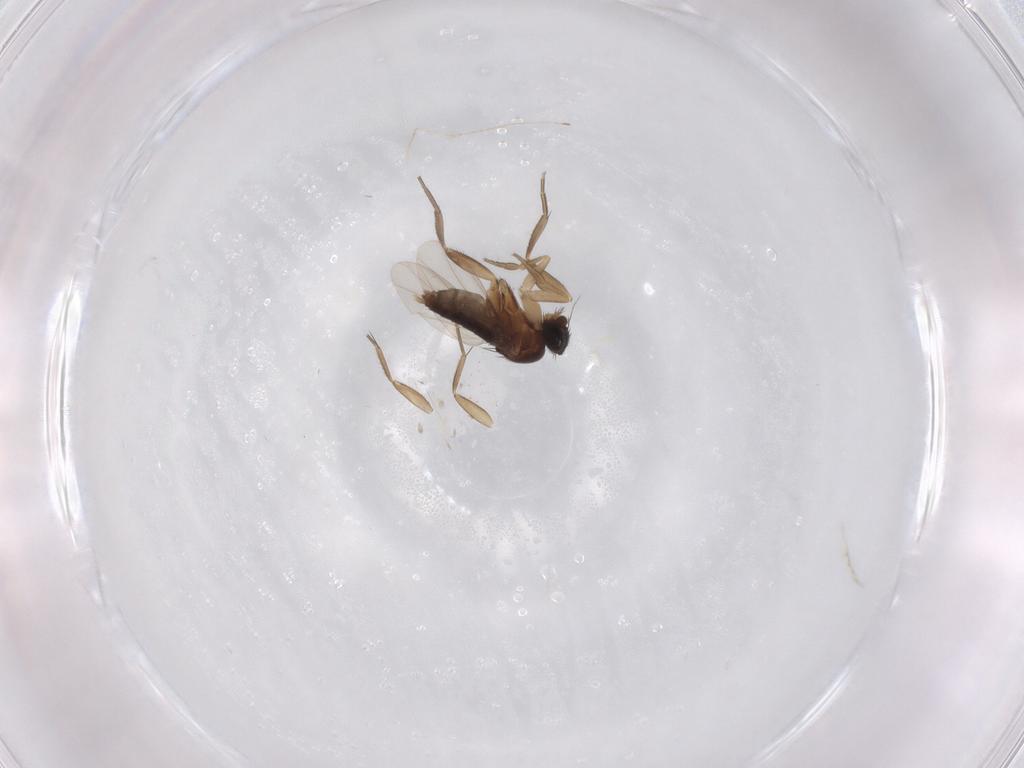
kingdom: Animalia
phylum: Arthropoda
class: Insecta
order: Diptera
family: Phoridae
